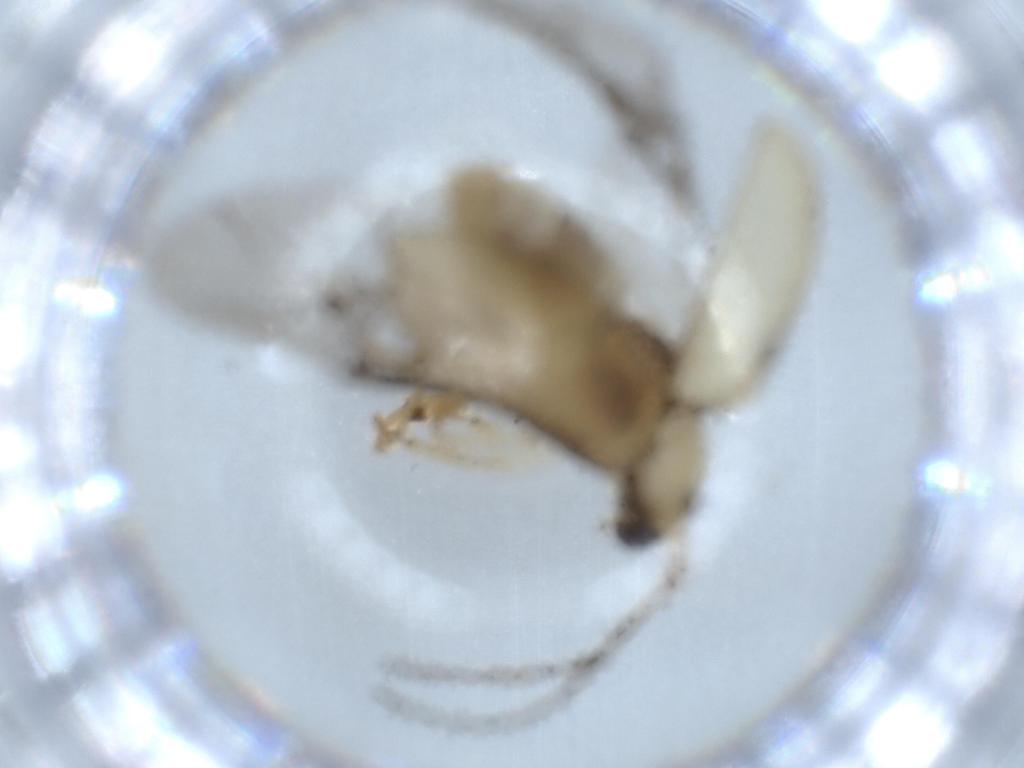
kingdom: Animalia
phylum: Arthropoda
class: Insecta
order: Coleoptera
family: Chrysomelidae
